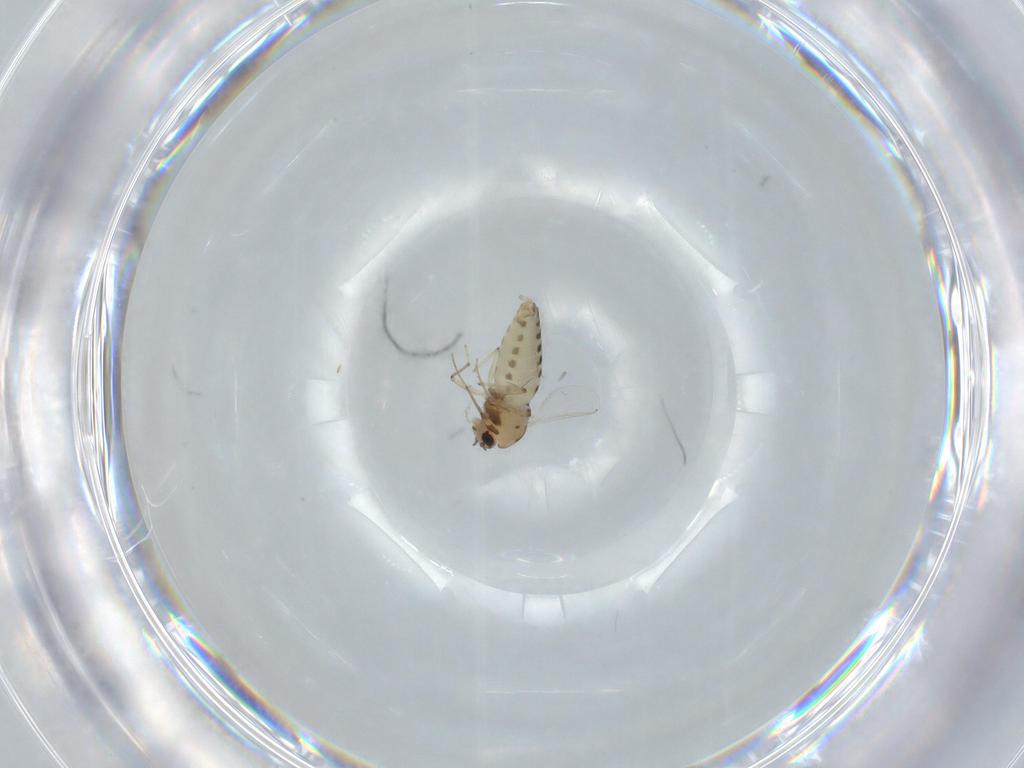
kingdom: Animalia
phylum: Arthropoda
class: Insecta
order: Diptera
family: Chironomidae
